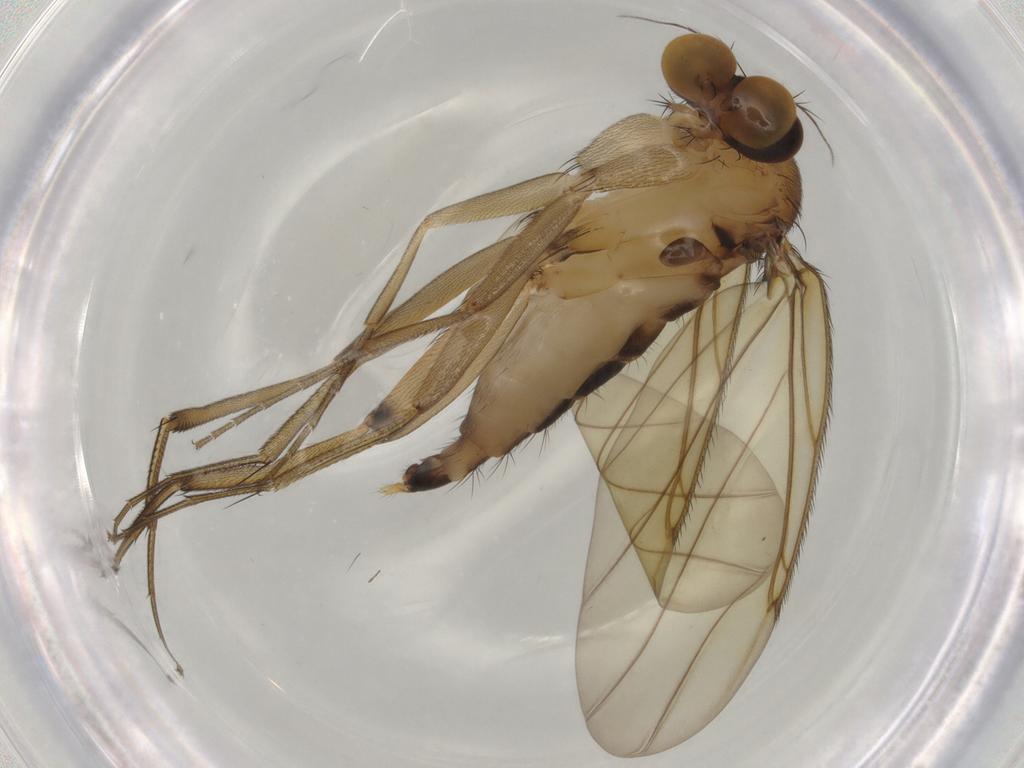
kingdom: Animalia
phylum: Arthropoda
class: Insecta
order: Diptera
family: Phoridae
